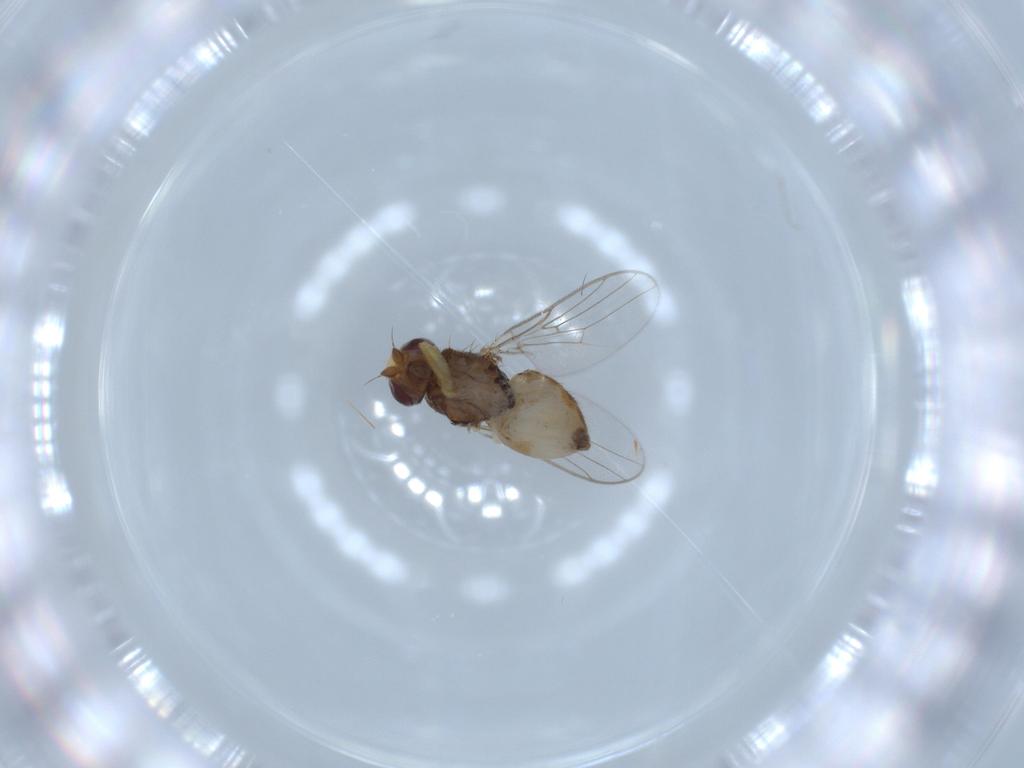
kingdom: Animalia
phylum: Arthropoda
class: Insecta
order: Diptera
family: Chloropidae
